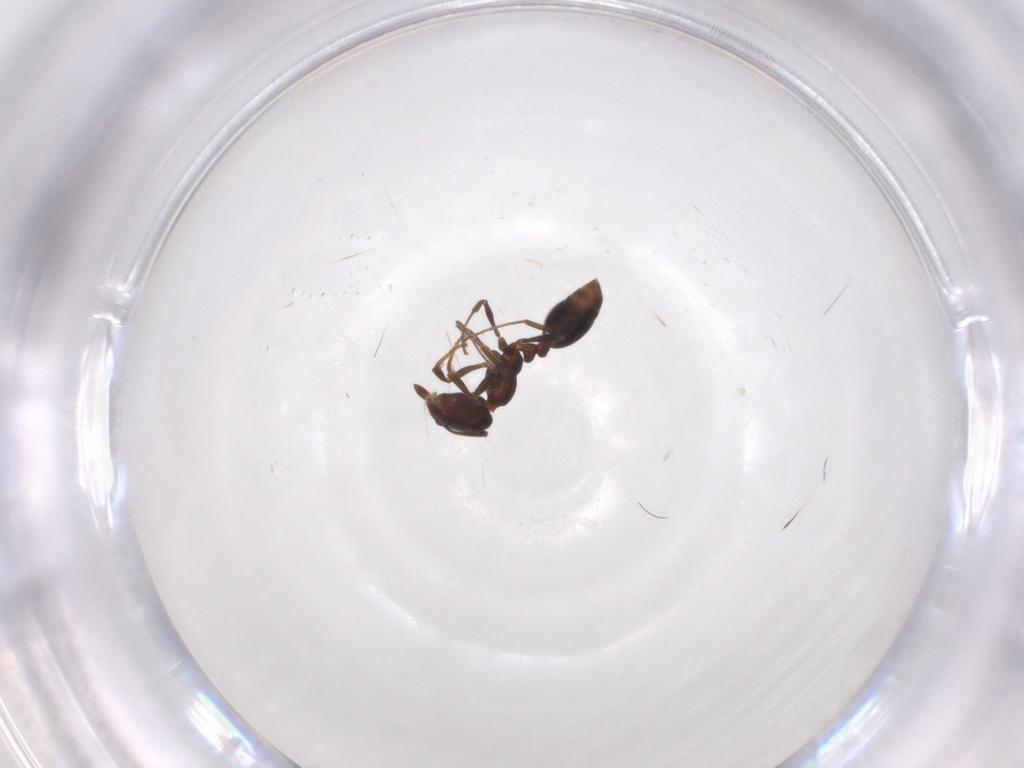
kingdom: Animalia
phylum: Arthropoda
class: Insecta
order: Hymenoptera
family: Formicidae
